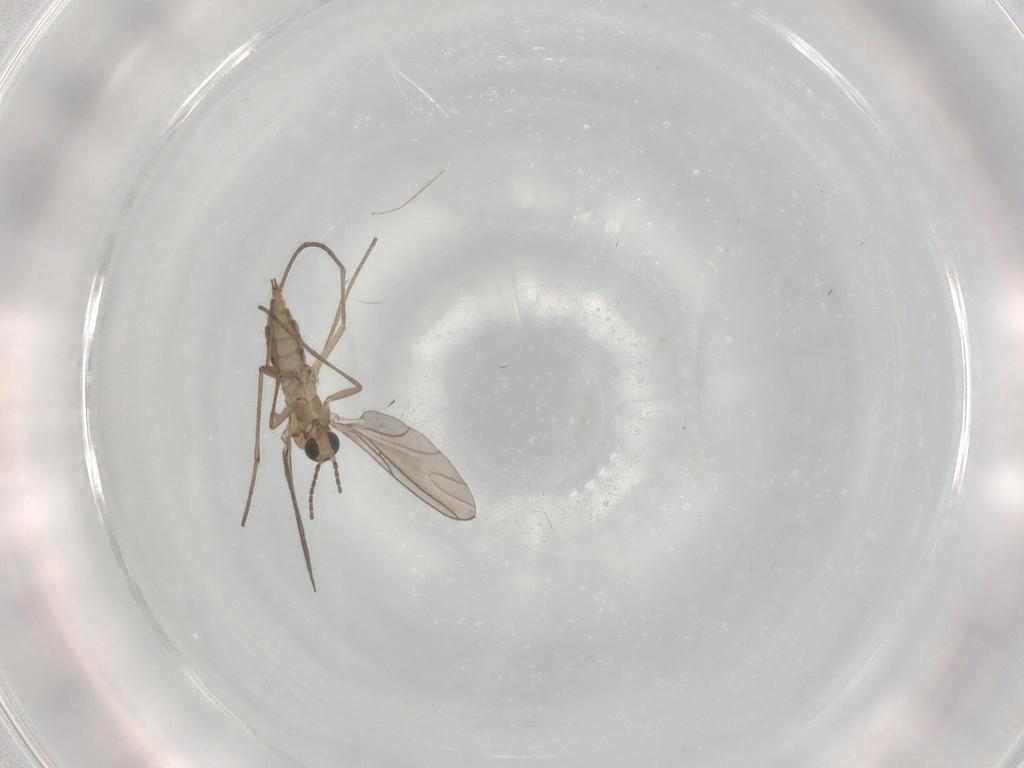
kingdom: Animalia
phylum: Arthropoda
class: Insecta
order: Diptera
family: Sciaridae
